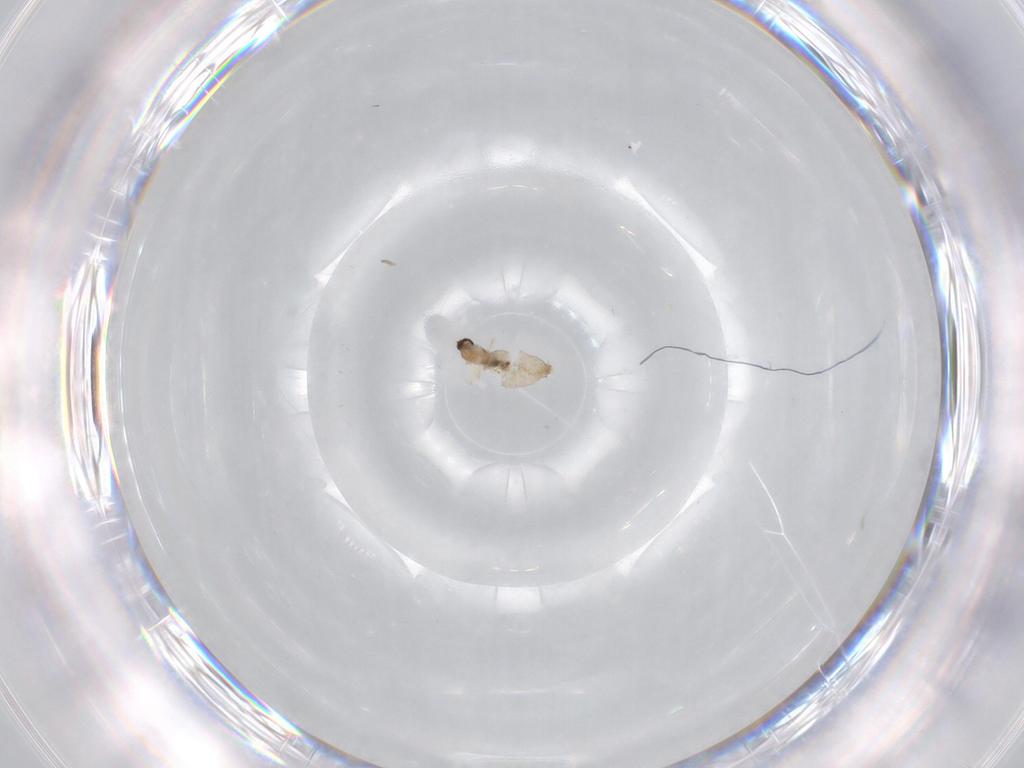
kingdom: Animalia
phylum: Arthropoda
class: Insecta
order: Diptera
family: Cecidomyiidae
